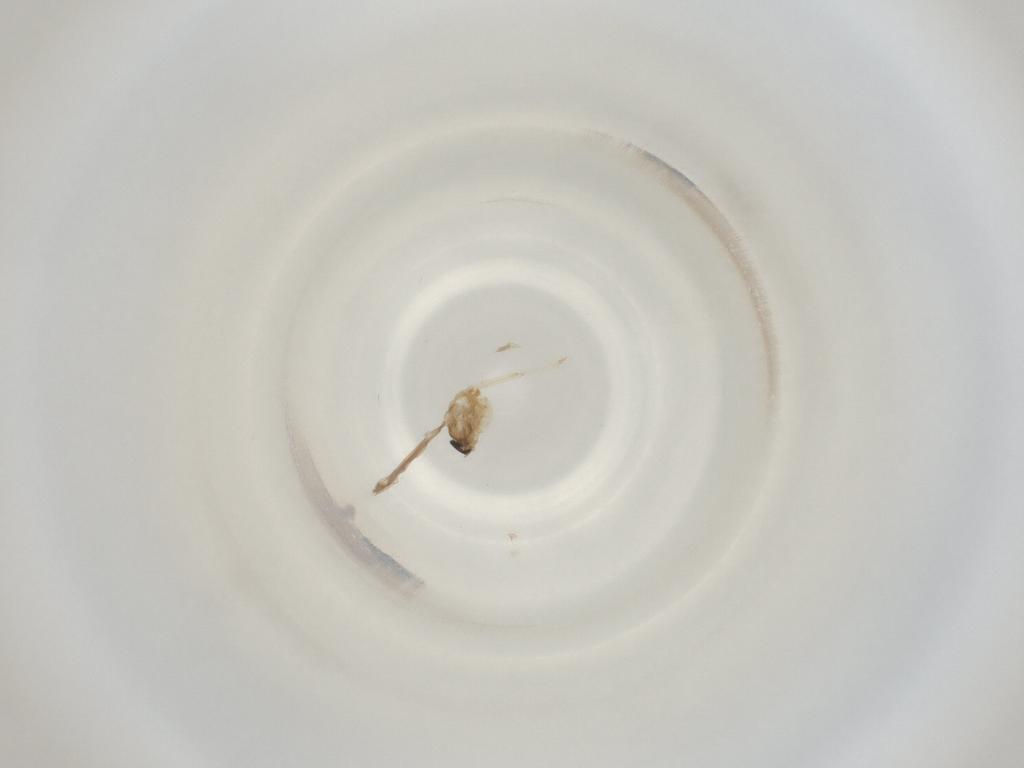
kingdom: Animalia
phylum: Arthropoda
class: Insecta
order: Diptera
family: Cecidomyiidae
